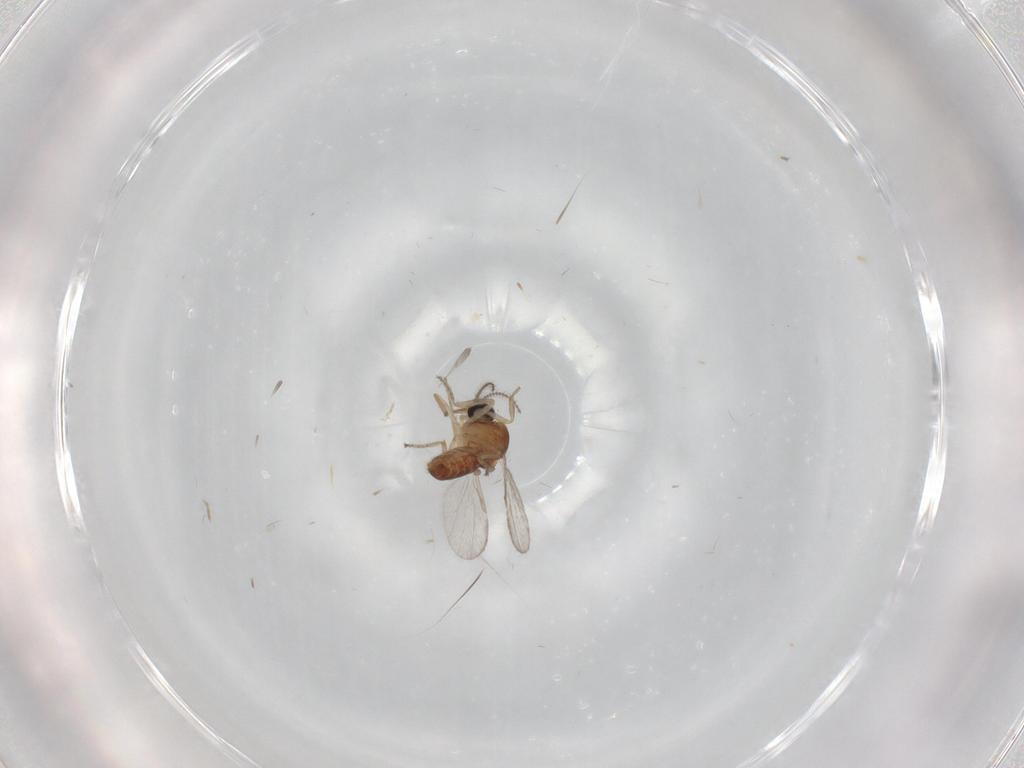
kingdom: Animalia
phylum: Arthropoda
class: Insecta
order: Diptera
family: Ceratopogonidae
